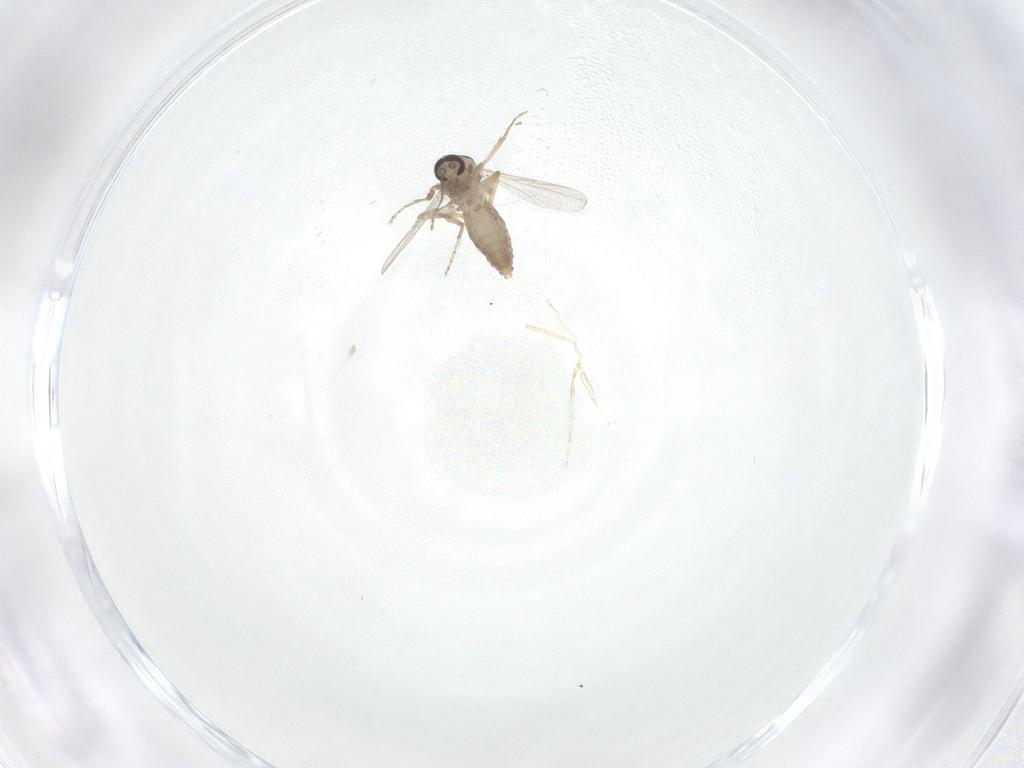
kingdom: Animalia
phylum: Arthropoda
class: Insecta
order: Diptera
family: Ceratopogonidae
